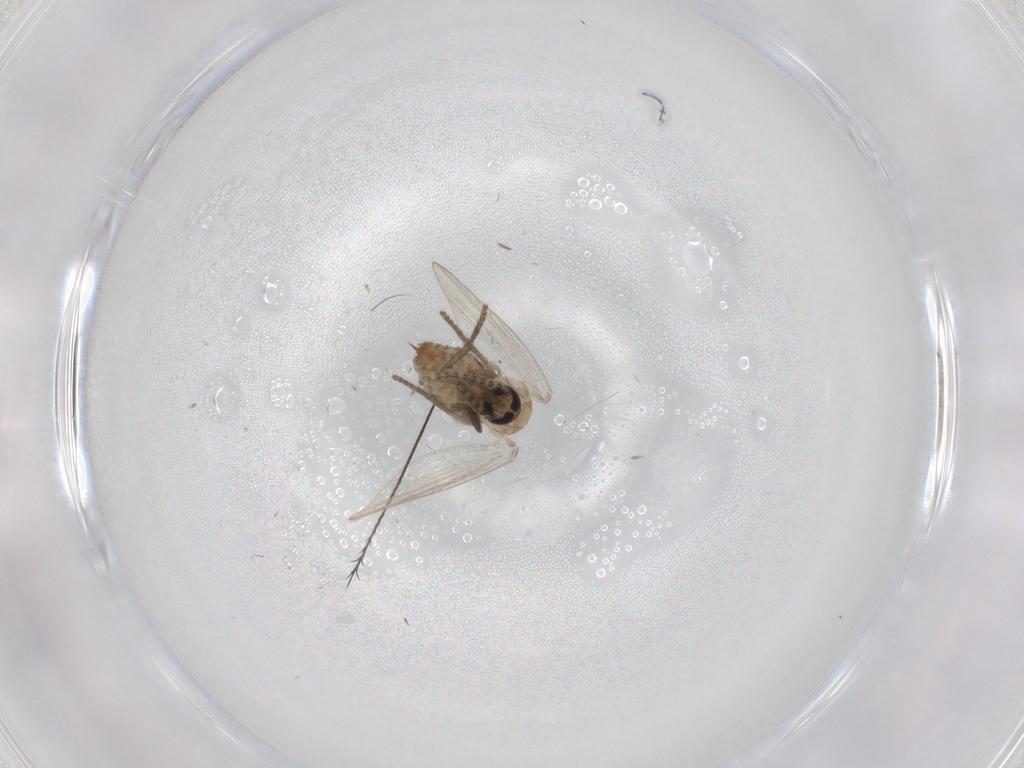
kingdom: Animalia
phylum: Arthropoda
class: Insecta
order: Diptera
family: Psychodidae
